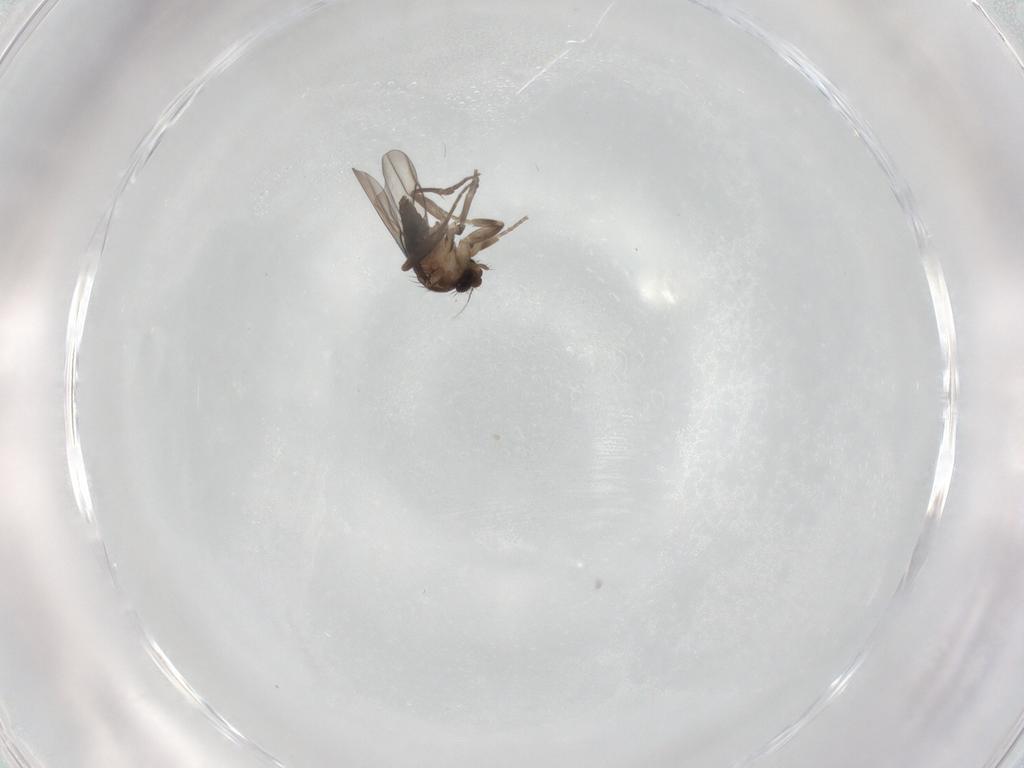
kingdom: Animalia
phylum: Arthropoda
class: Insecta
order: Diptera
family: Phoridae
